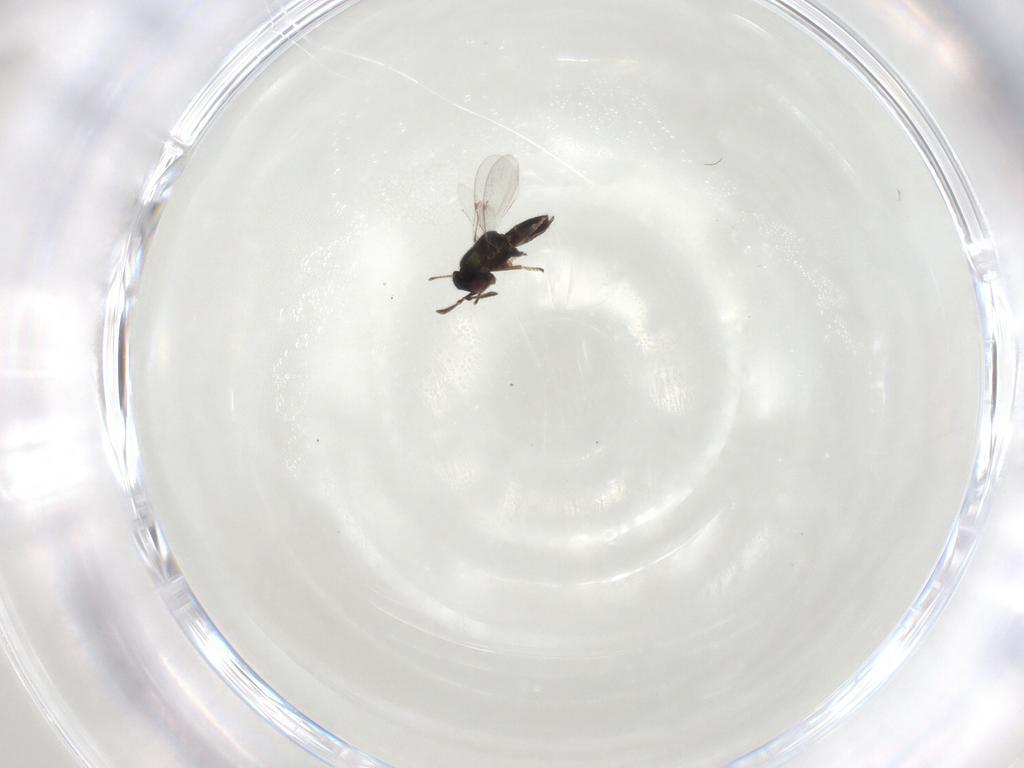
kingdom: Animalia
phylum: Arthropoda
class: Insecta
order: Hymenoptera
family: Encyrtidae
